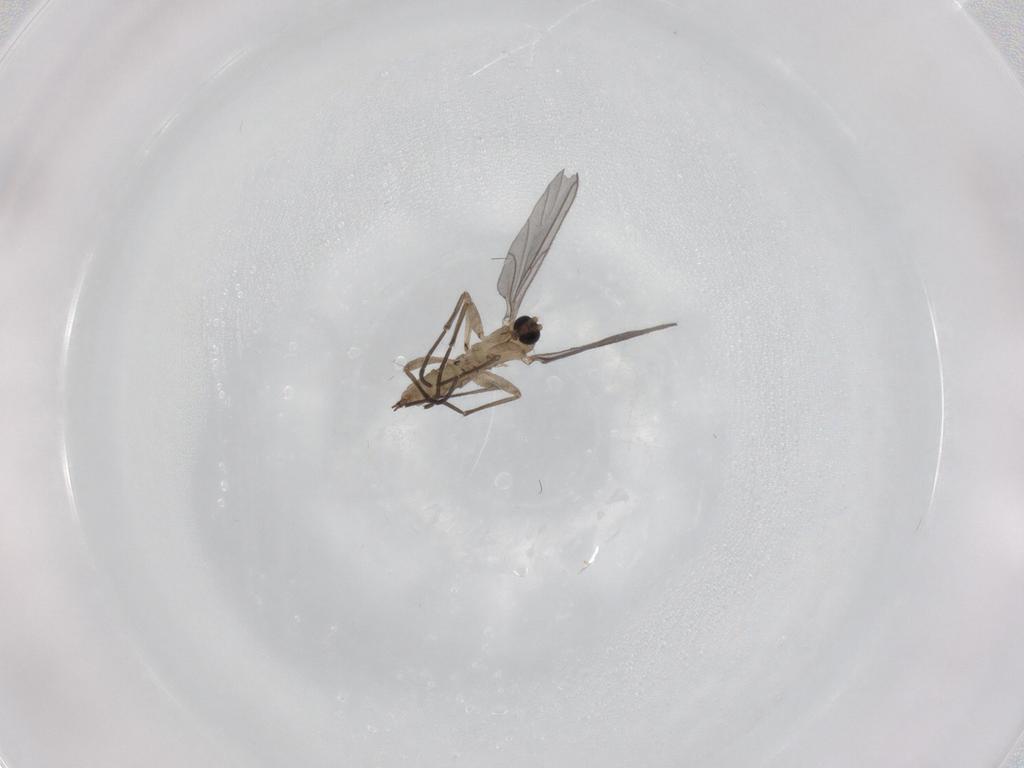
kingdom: Animalia
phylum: Arthropoda
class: Insecta
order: Diptera
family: Sciaridae
